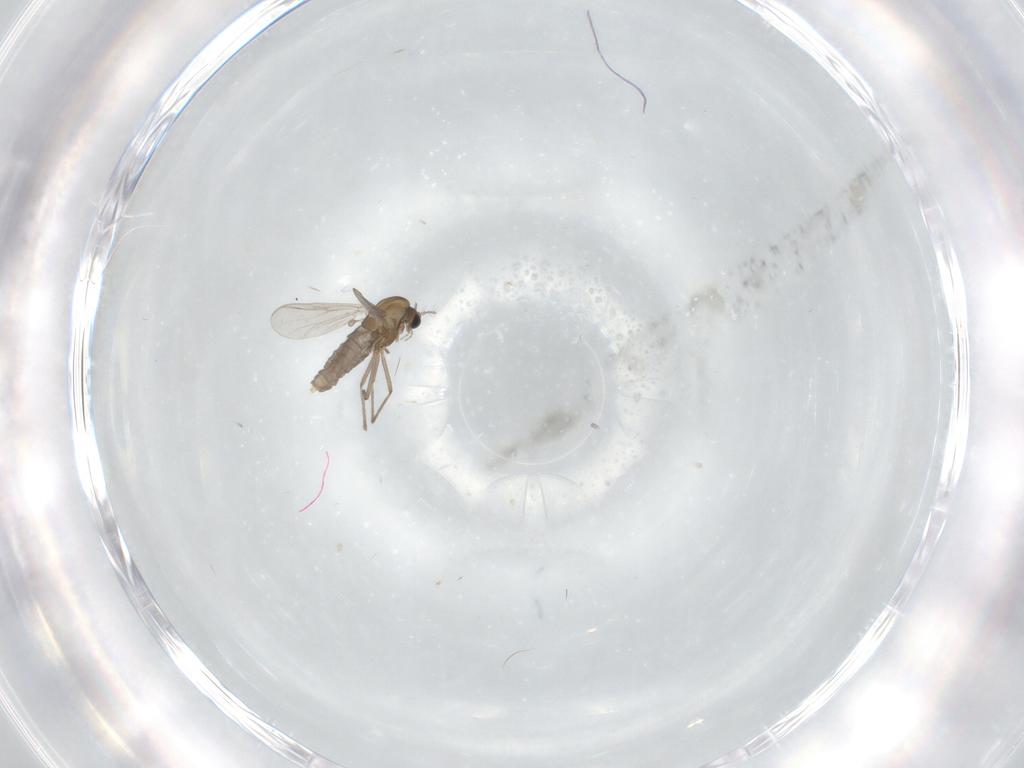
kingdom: Animalia
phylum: Arthropoda
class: Insecta
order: Diptera
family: Chironomidae
